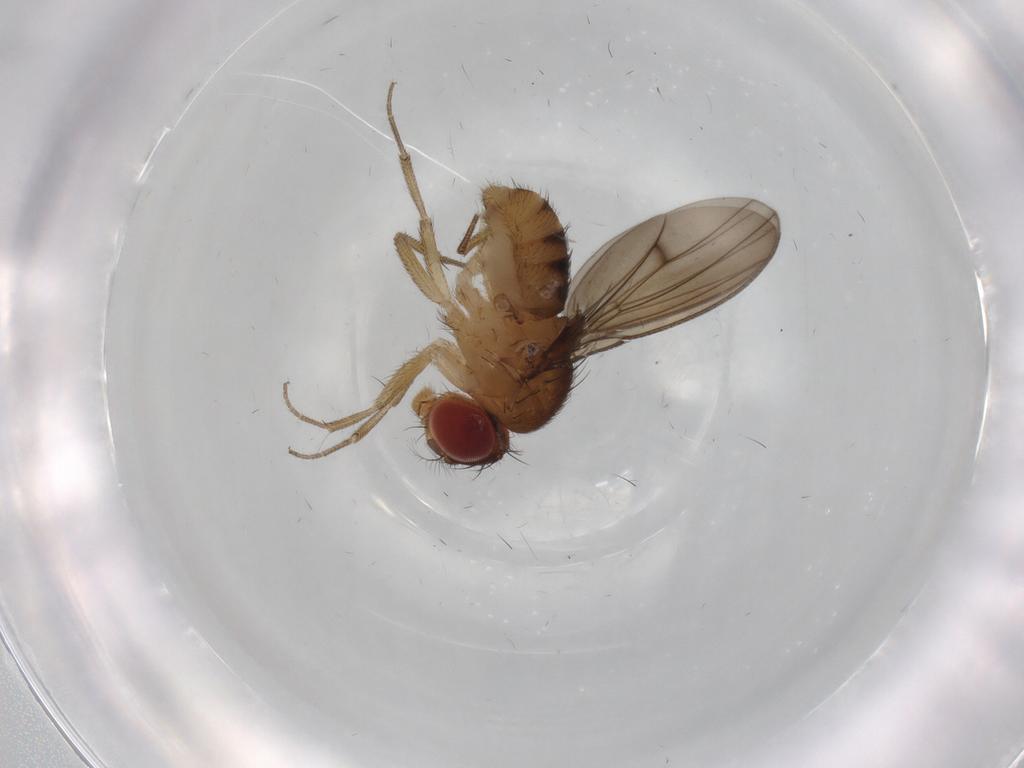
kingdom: Animalia
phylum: Arthropoda
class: Insecta
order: Diptera
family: Drosophilidae
